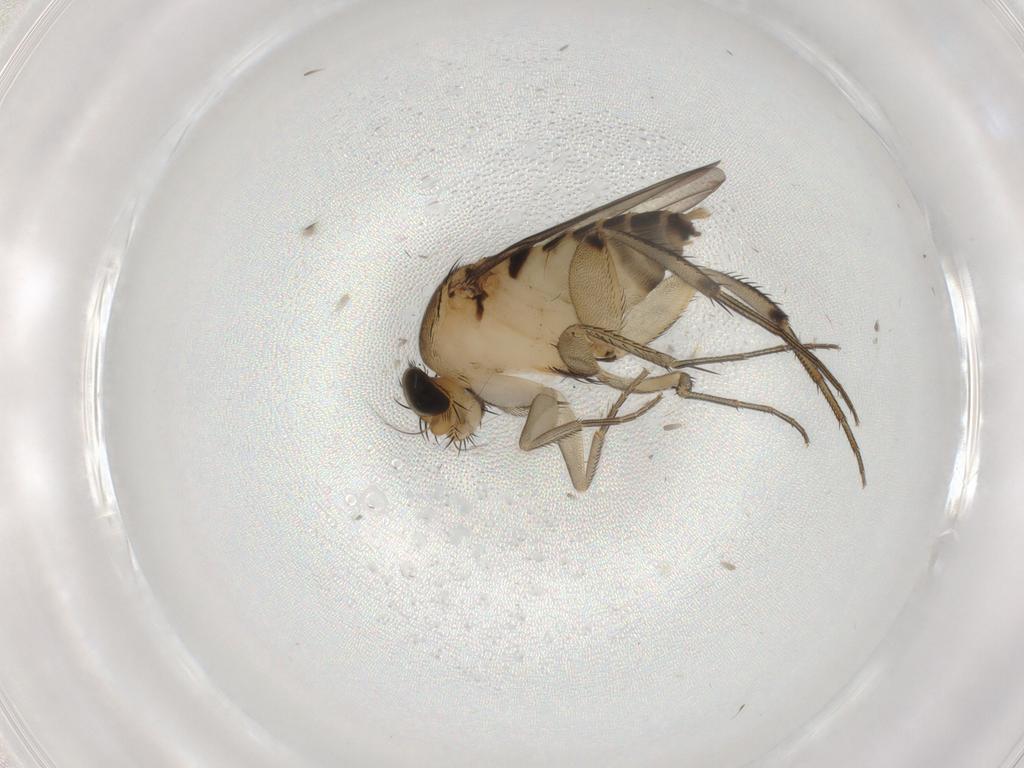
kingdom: Animalia
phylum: Arthropoda
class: Insecta
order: Diptera
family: Phoridae
